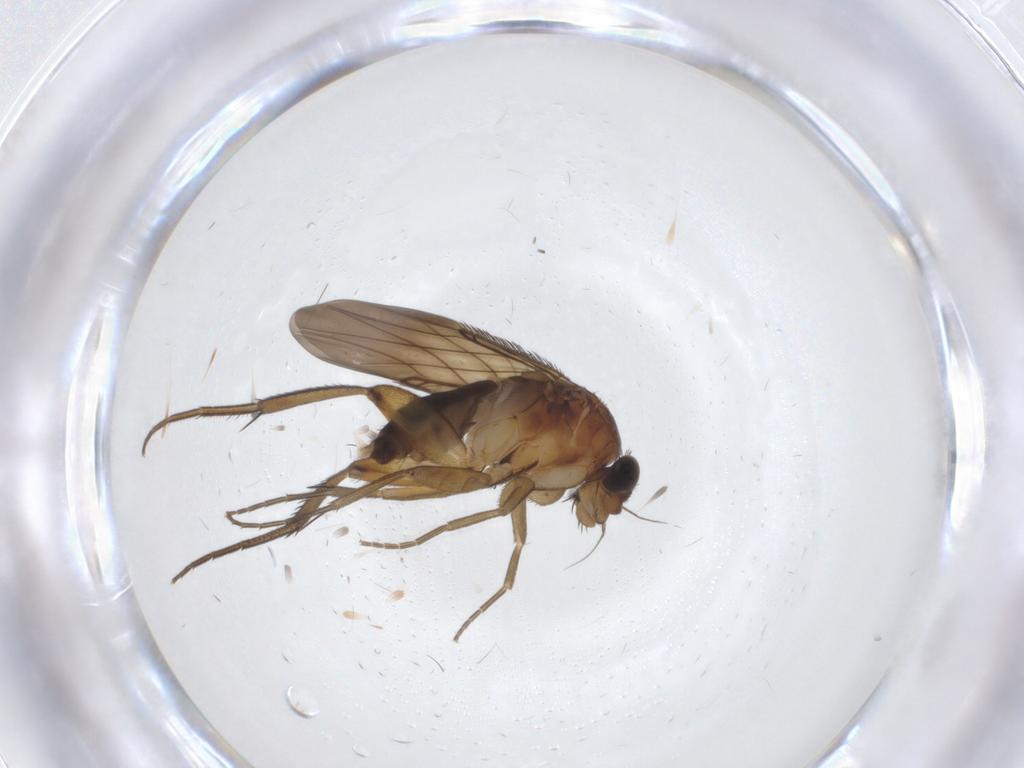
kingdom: Animalia
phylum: Arthropoda
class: Insecta
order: Diptera
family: Phoridae
